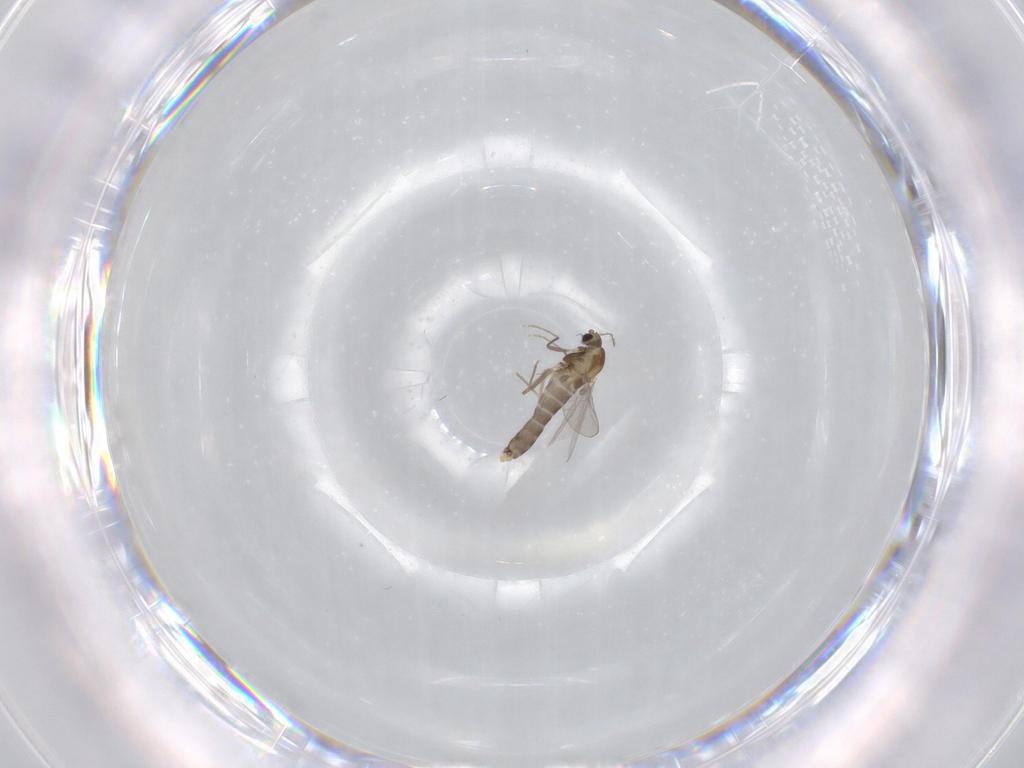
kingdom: Animalia
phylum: Arthropoda
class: Insecta
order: Diptera
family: Chironomidae
